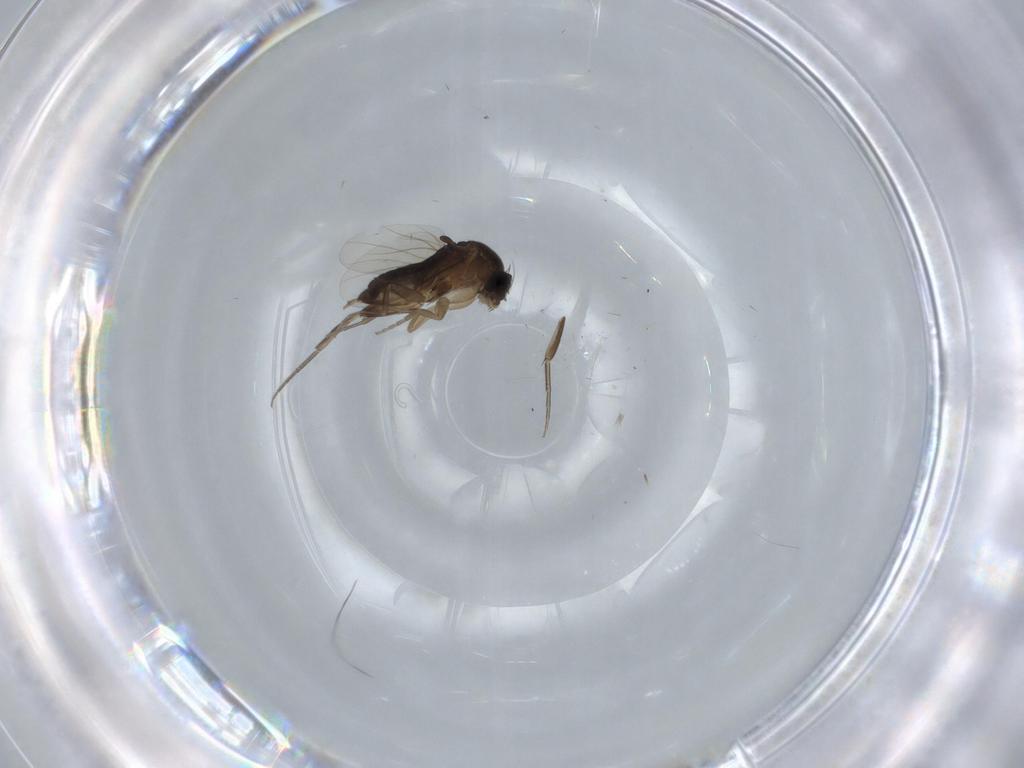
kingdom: Animalia
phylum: Arthropoda
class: Insecta
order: Diptera
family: Phoridae
